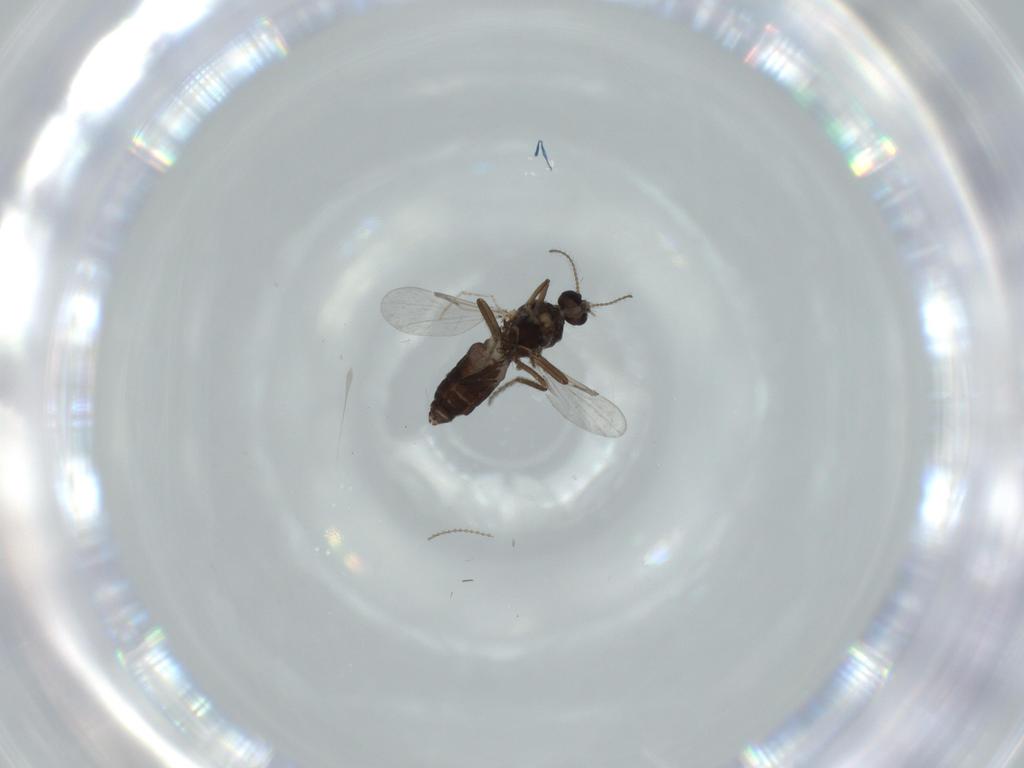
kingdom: Animalia
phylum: Arthropoda
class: Insecta
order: Diptera
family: Ceratopogonidae
